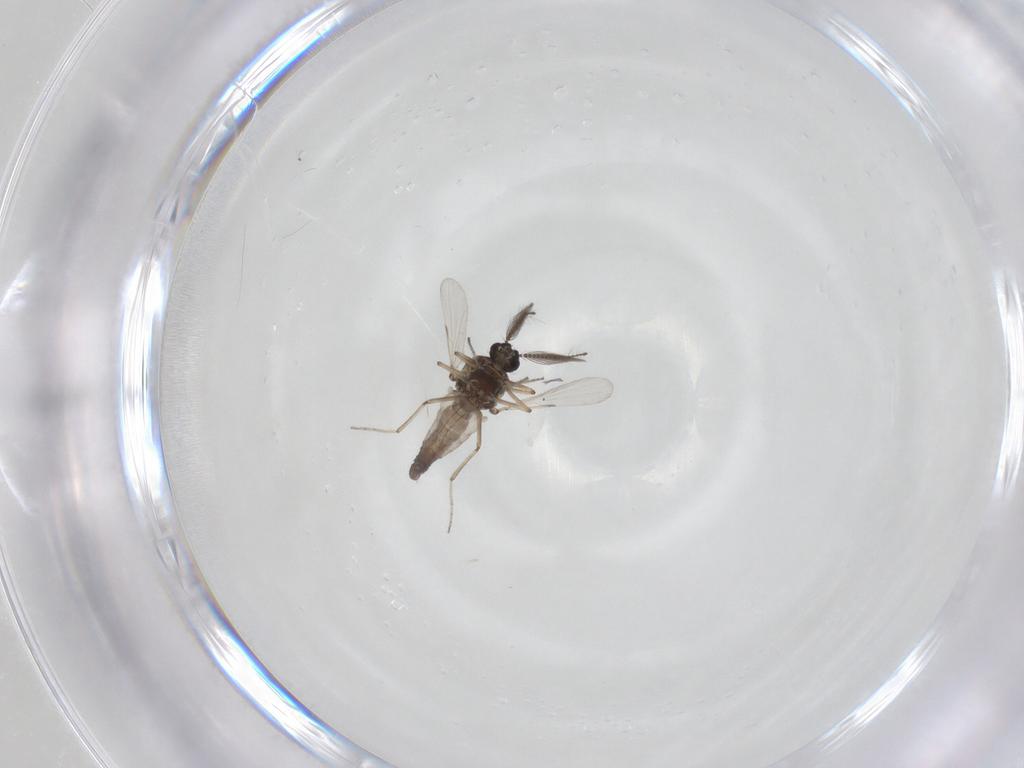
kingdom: Animalia
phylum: Arthropoda
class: Insecta
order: Diptera
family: Ceratopogonidae
